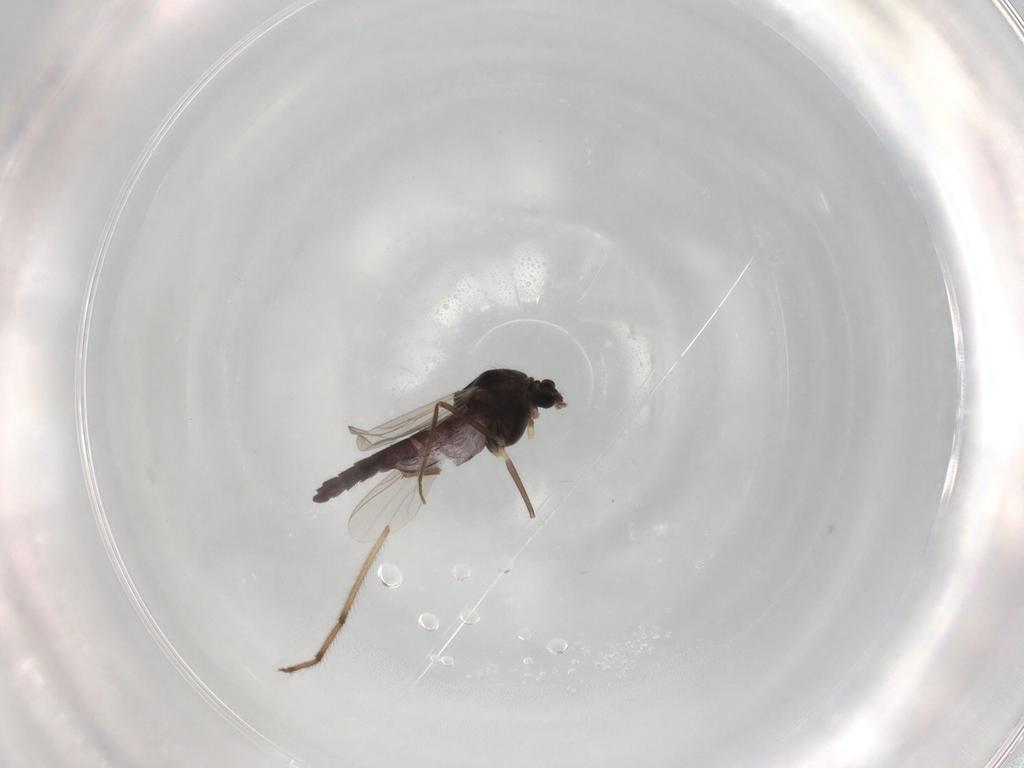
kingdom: Animalia
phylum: Arthropoda
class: Insecta
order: Diptera
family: Chironomidae
